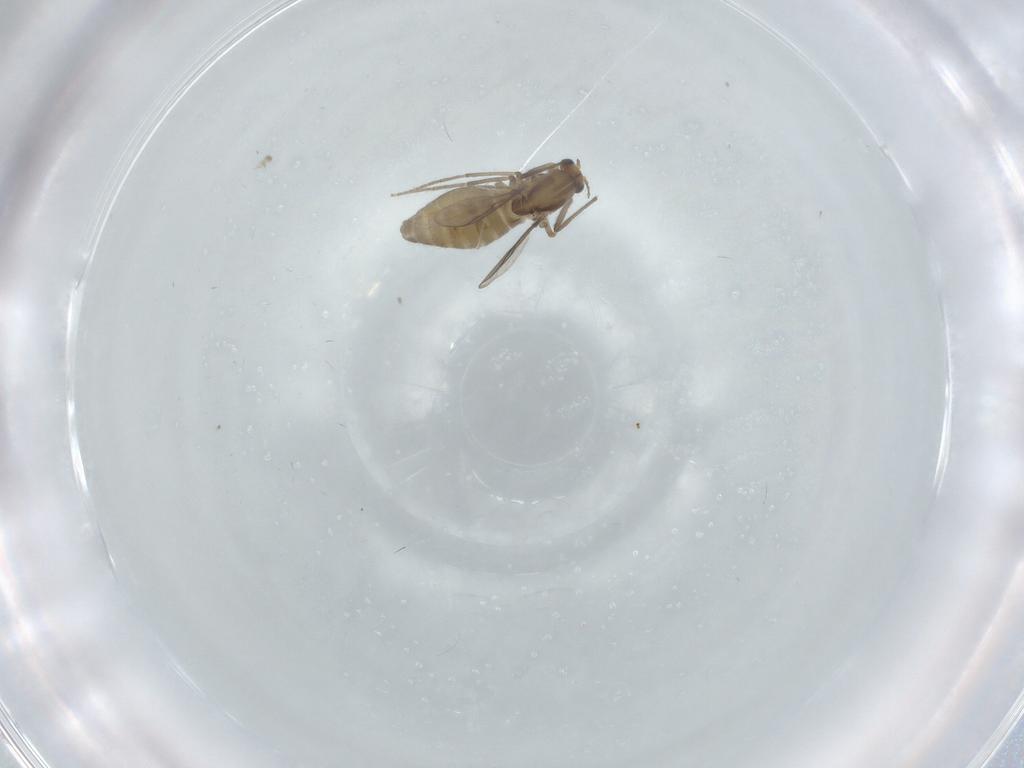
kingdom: Animalia
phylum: Arthropoda
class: Insecta
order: Diptera
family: Chironomidae
